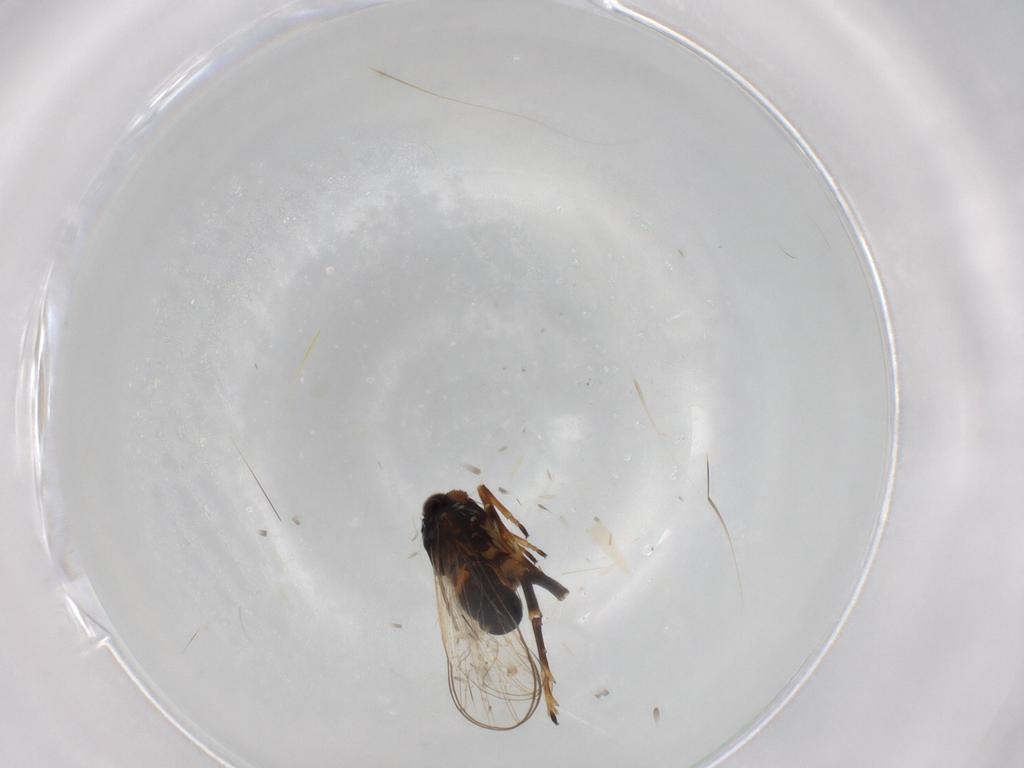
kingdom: Animalia
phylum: Arthropoda
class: Insecta
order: Hemiptera
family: Delphacidae
